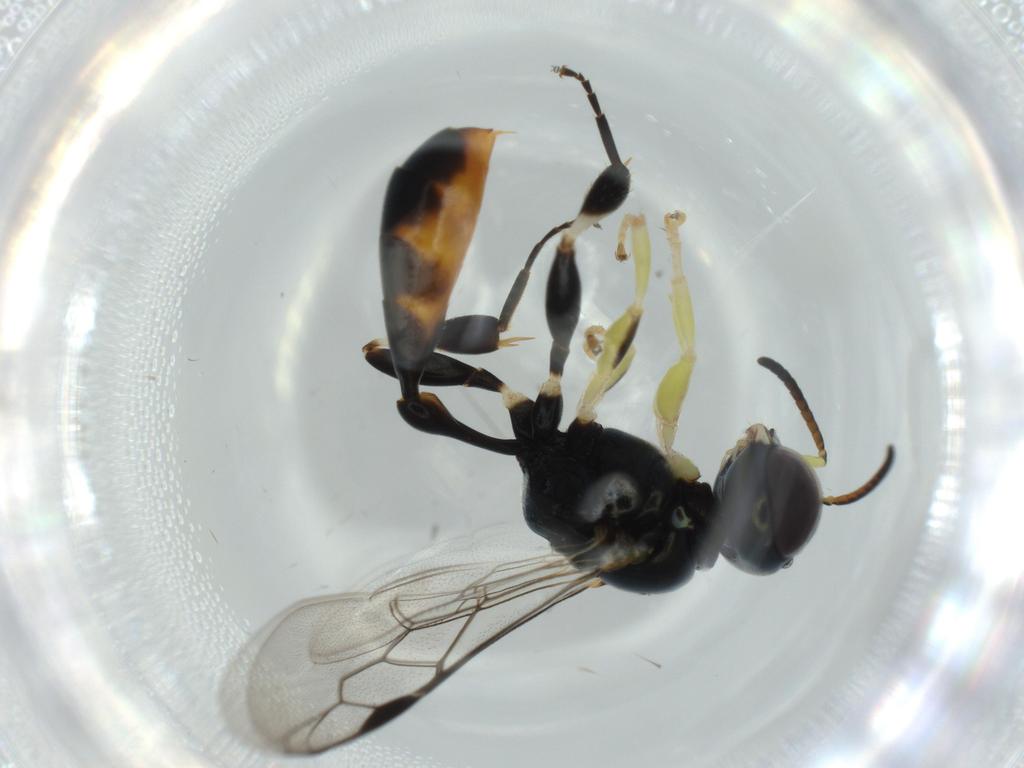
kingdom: Animalia
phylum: Arthropoda
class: Insecta
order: Hymenoptera
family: Crabronidae
